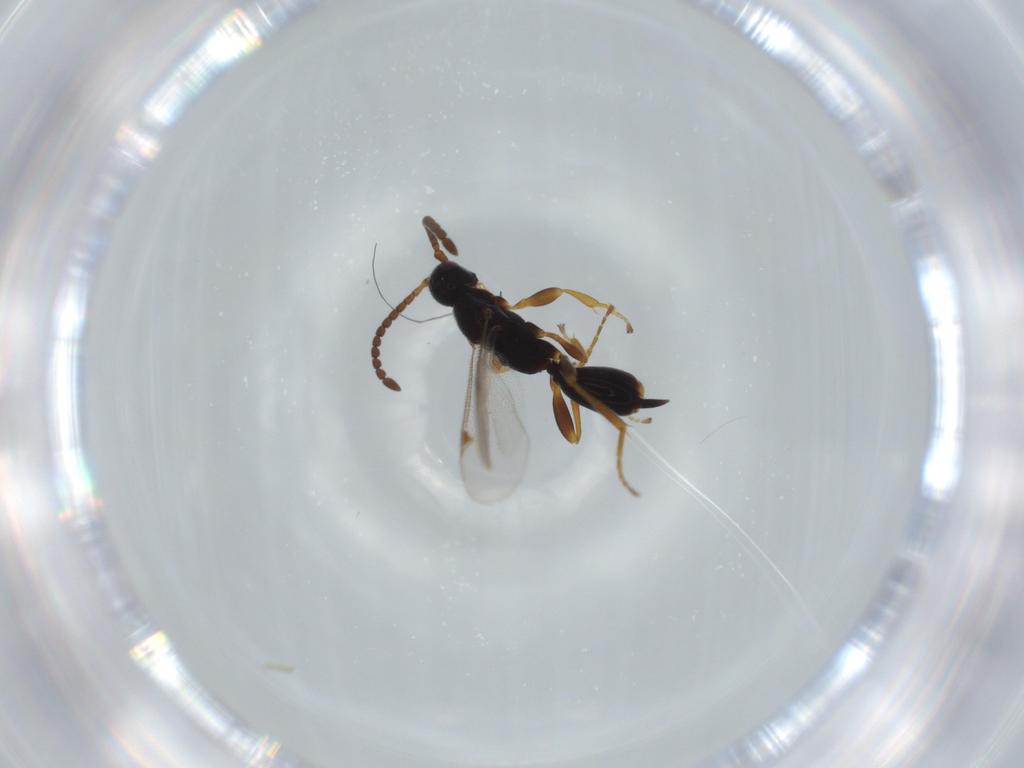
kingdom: Animalia
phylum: Arthropoda
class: Insecta
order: Hymenoptera
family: Proctotrupidae
